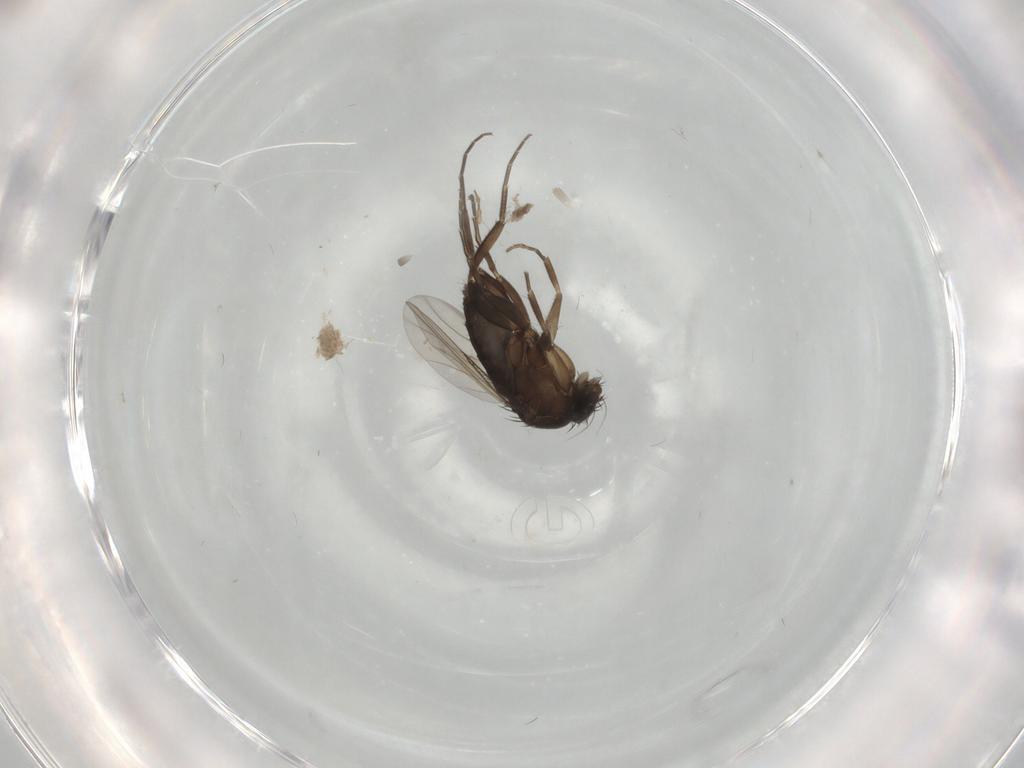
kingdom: Animalia
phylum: Arthropoda
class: Insecta
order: Diptera
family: Phoridae
